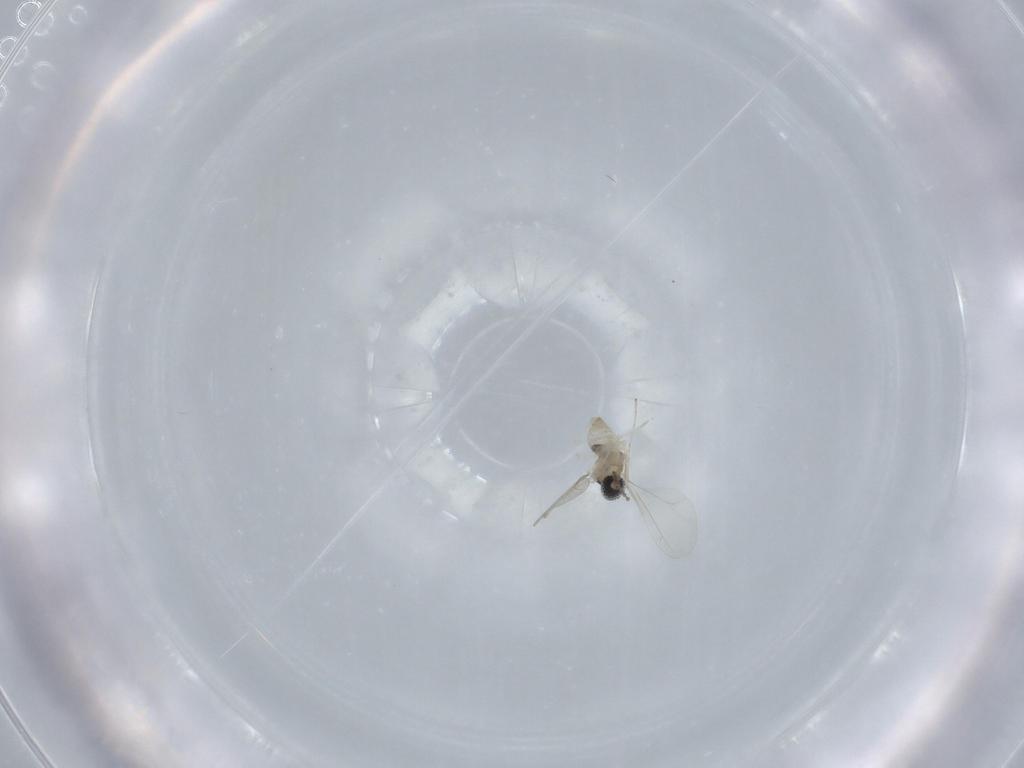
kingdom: Animalia
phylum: Arthropoda
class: Insecta
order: Diptera
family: Cecidomyiidae
